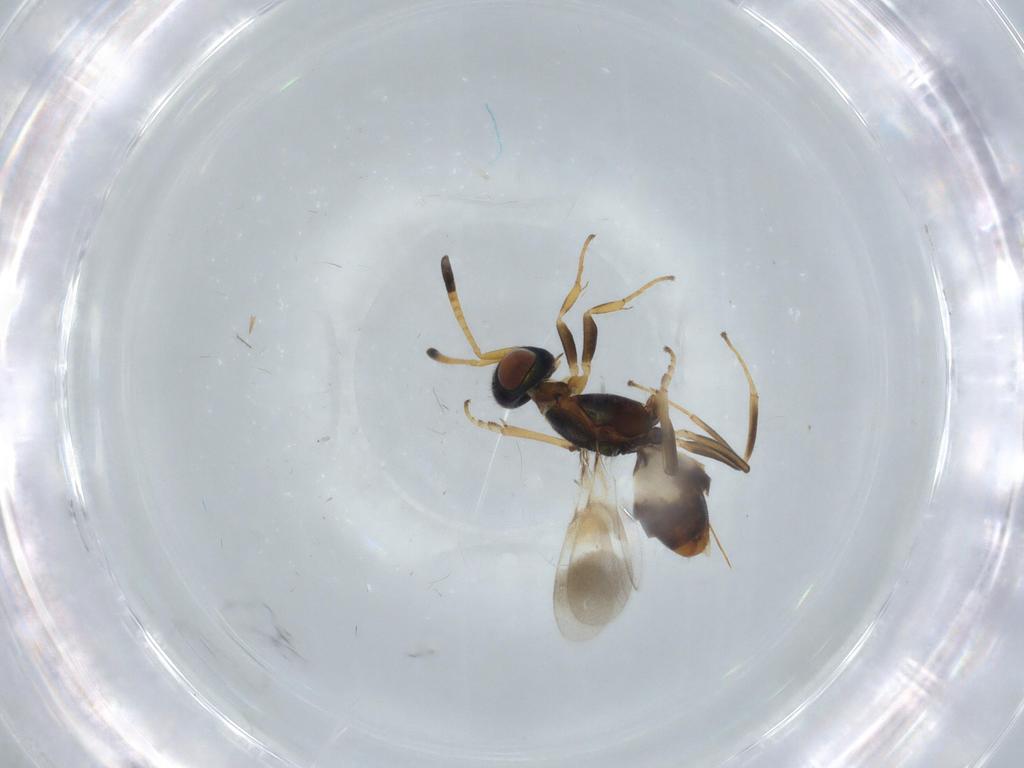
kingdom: Animalia
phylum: Arthropoda
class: Insecta
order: Hymenoptera
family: Eupelmidae
